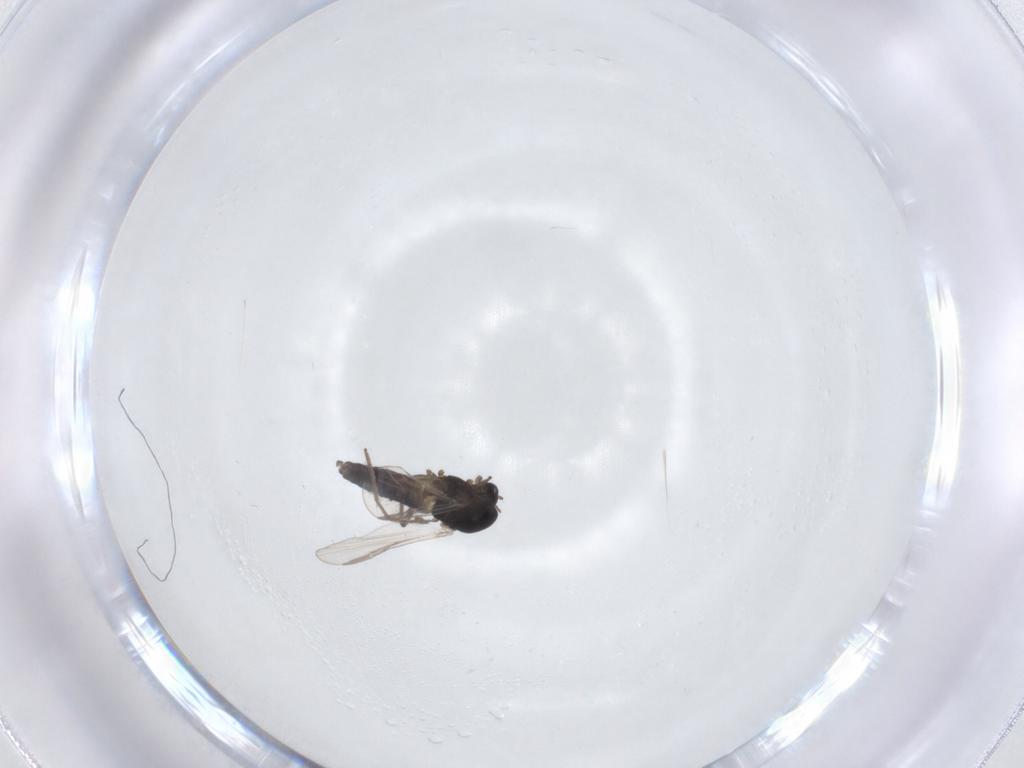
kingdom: Animalia
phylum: Arthropoda
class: Insecta
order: Diptera
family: Chironomidae
